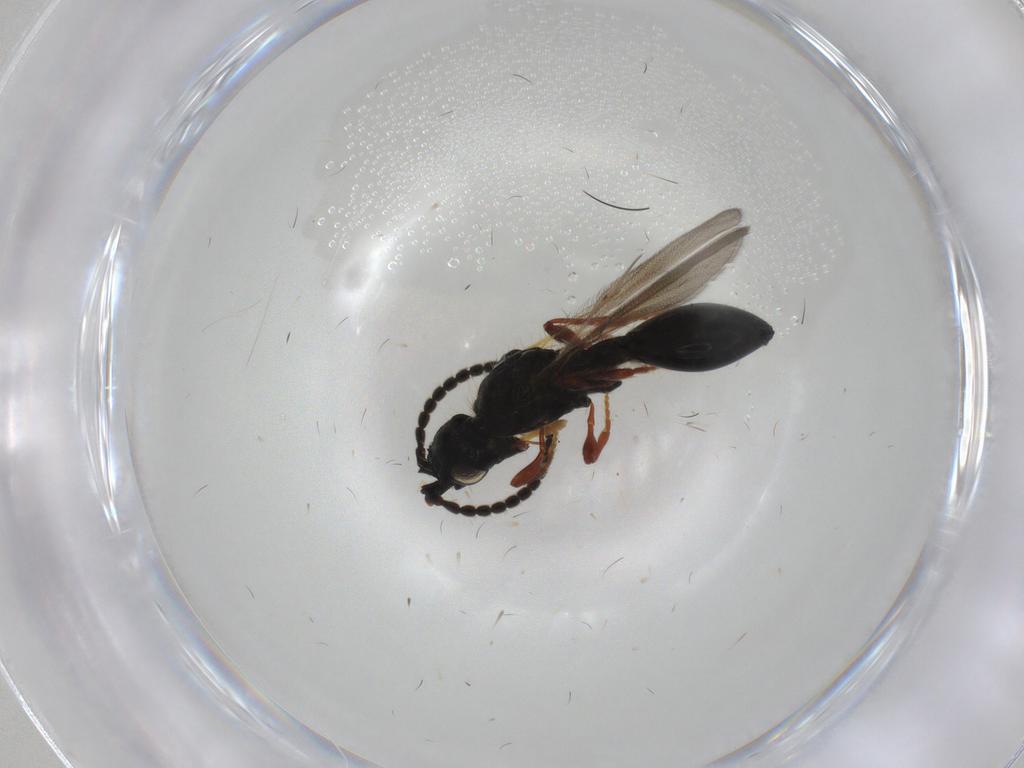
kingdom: Animalia
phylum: Arthropoda
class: Insecta
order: Hymenoptera
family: Diapriidae
